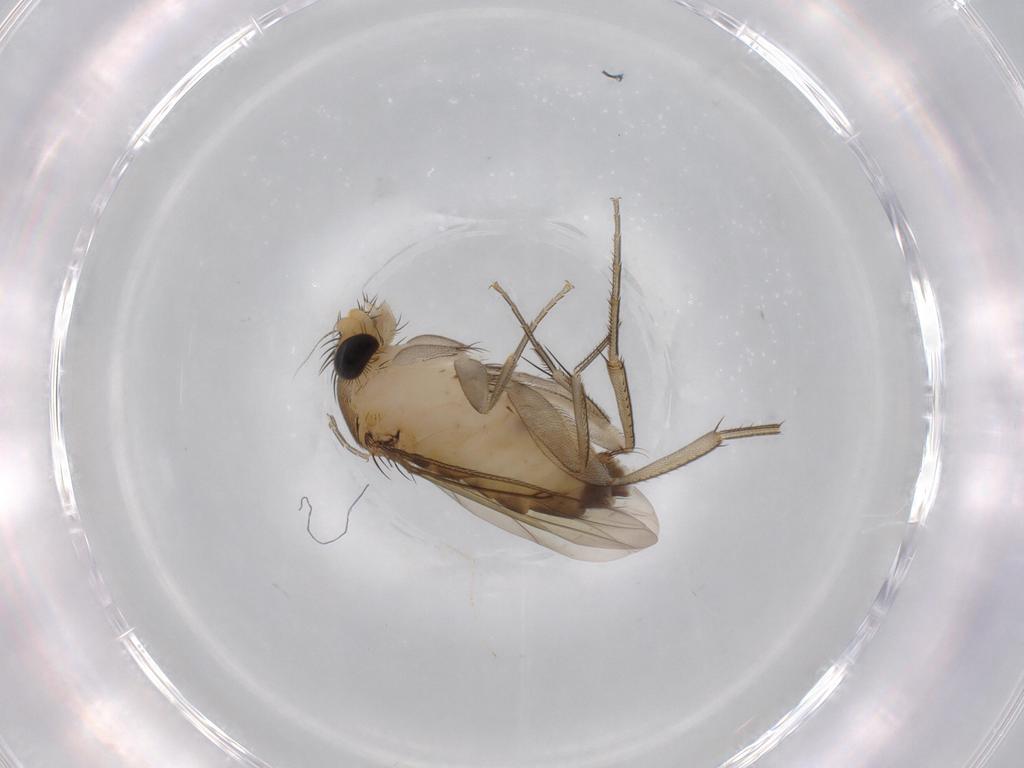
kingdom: Animalia
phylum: Arthropoda
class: Insecta
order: Diptera
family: Phoridae
